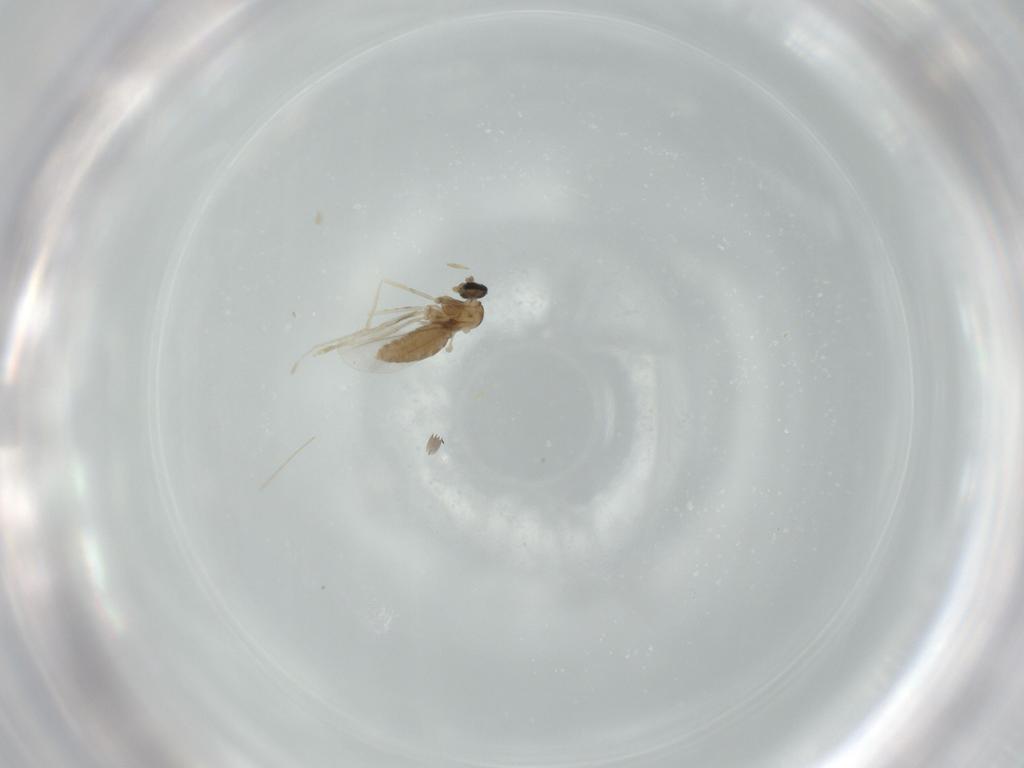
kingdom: Animalia
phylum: Arthropoda
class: Insecta
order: Diptera
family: Cecidomyiidae
